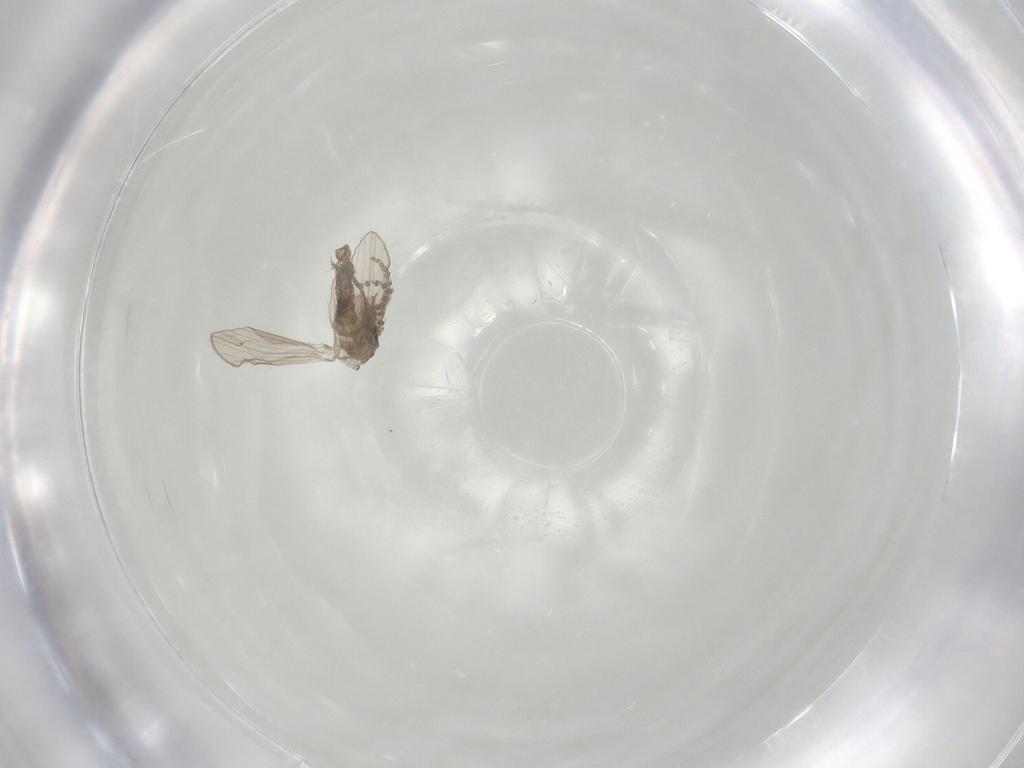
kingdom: Animalia
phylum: Arthropoda
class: Insecta
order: Diptera
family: Psychodidae
